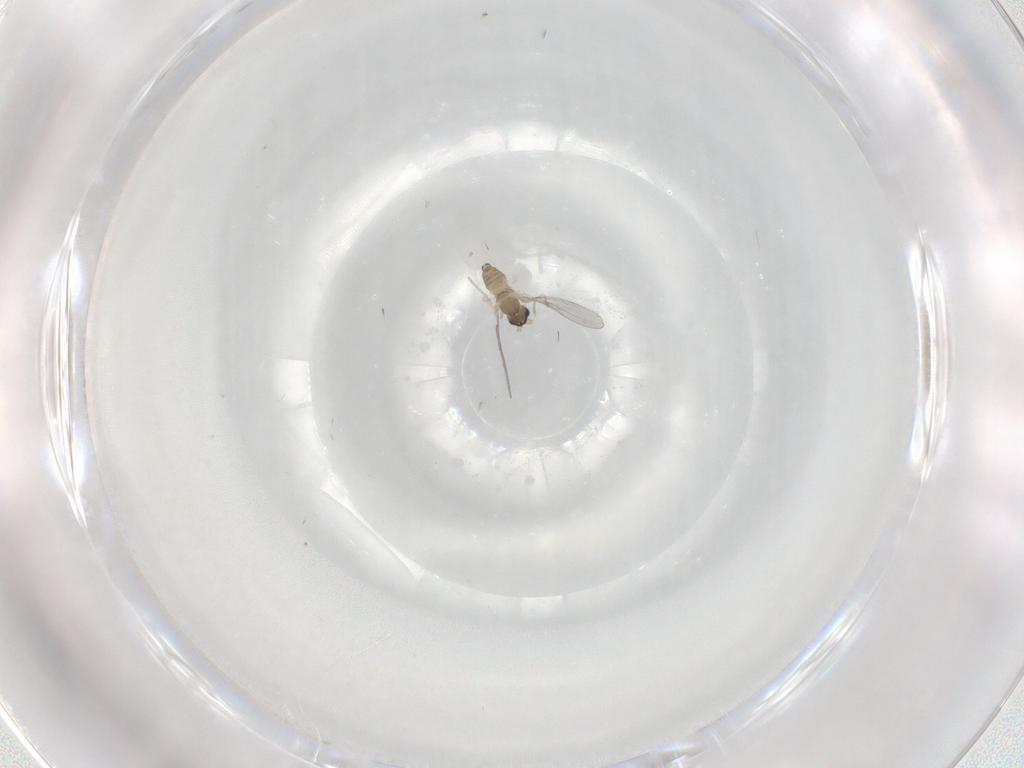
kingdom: Animalia
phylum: Arthropoda
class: Insecta
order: Diptera
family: Cecidomyiidae
